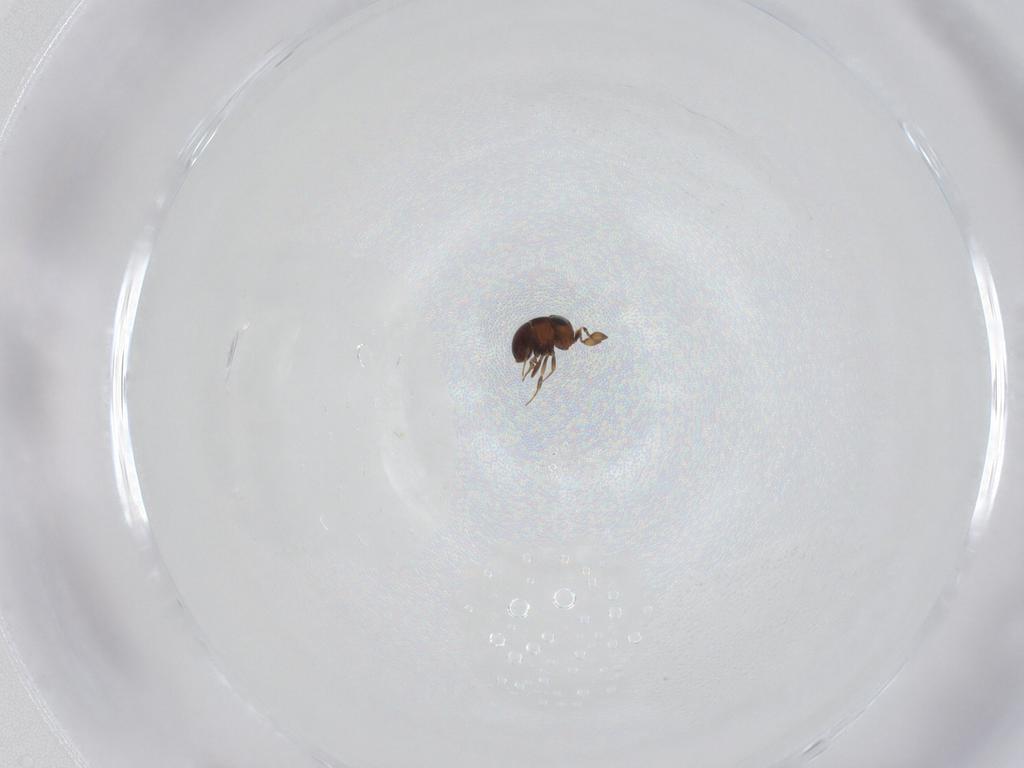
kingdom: Animalia
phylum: Arthropoda
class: Insecta
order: Hymenoptera
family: Scelionidae
